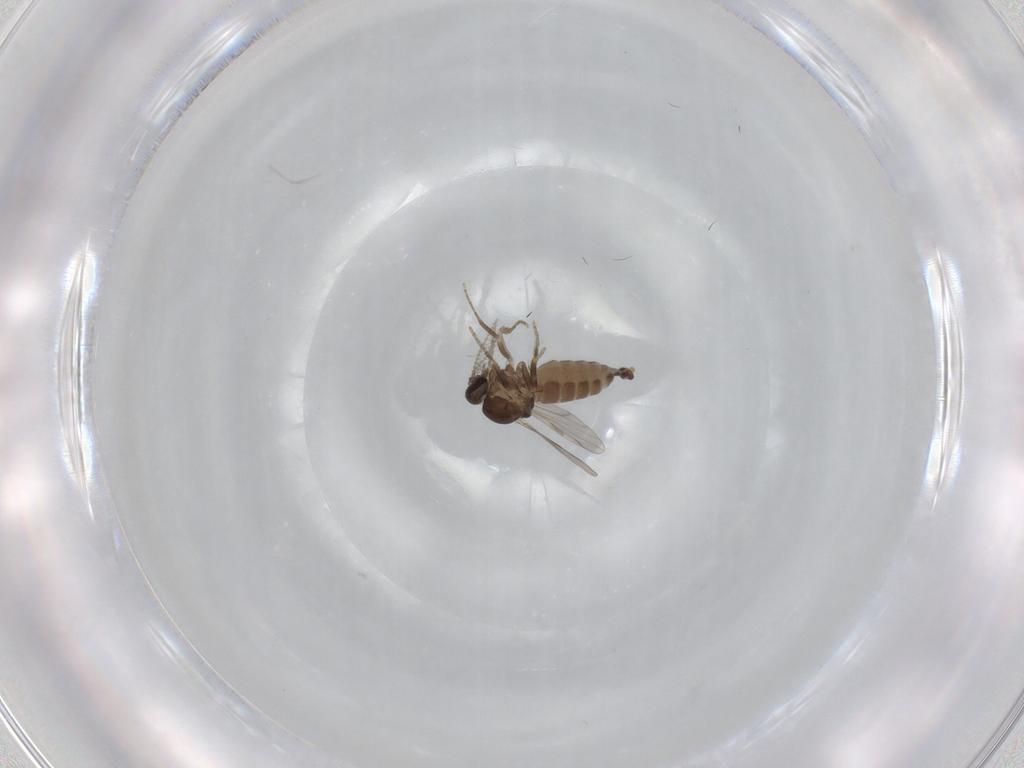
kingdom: Animalia
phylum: Arthropoda
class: Insecta
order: Diptera
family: Ceratopogonidae
